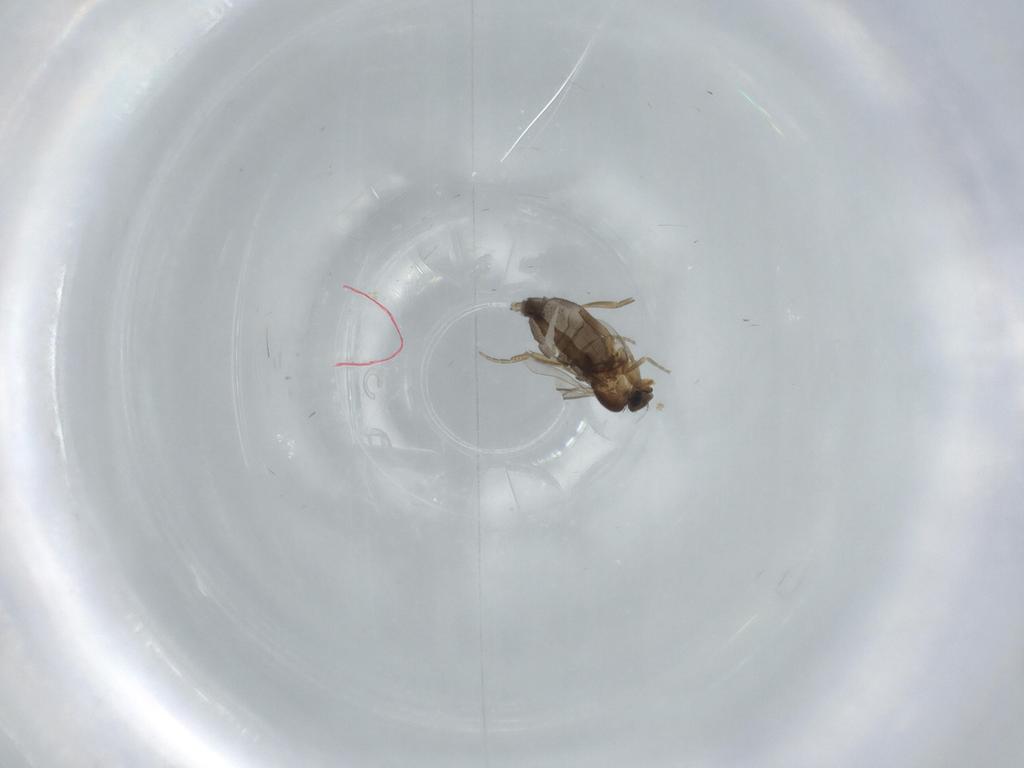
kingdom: Animalia
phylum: Arthropoda
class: Insecta
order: Diptera
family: Phoridae
